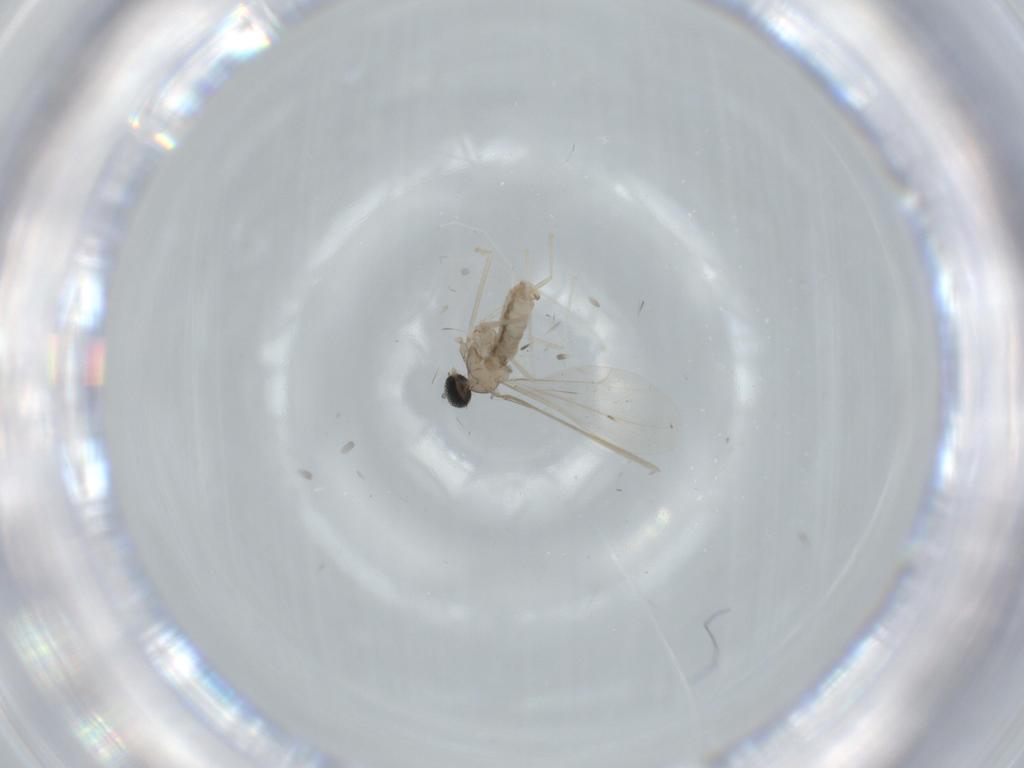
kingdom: Animalia
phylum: Arthropoda
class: Insecta
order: Diptera
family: Cecidomyiidae
